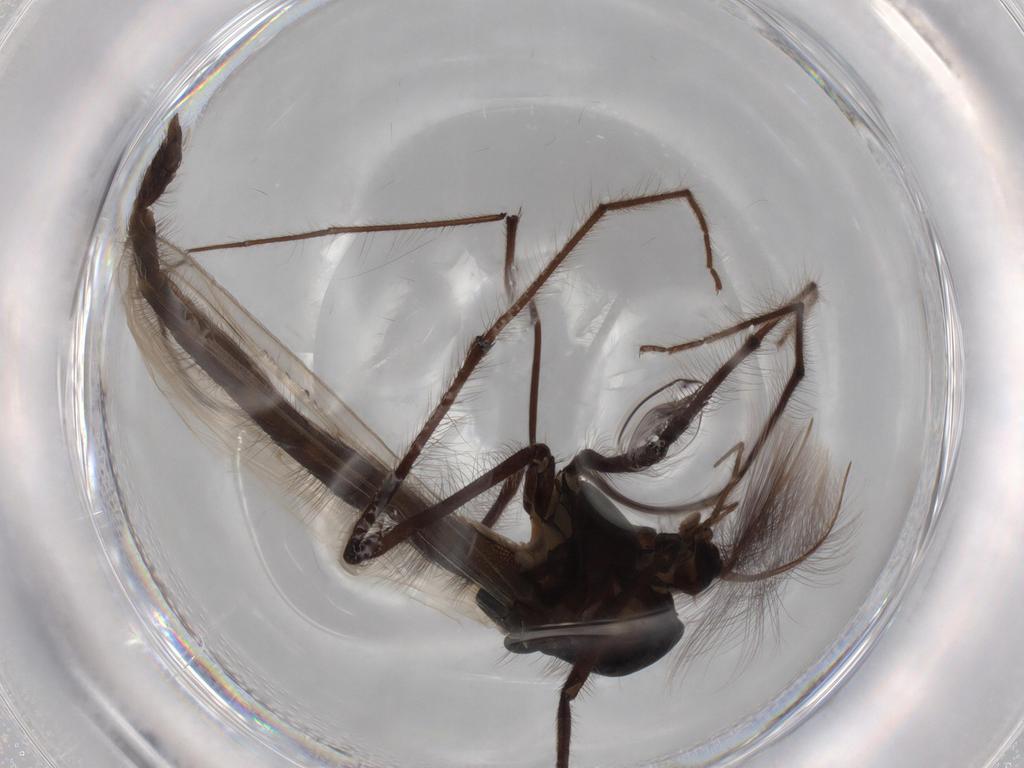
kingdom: Animalia
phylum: Arthropoda
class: Insecta
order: Diptera
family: Chironomidae
